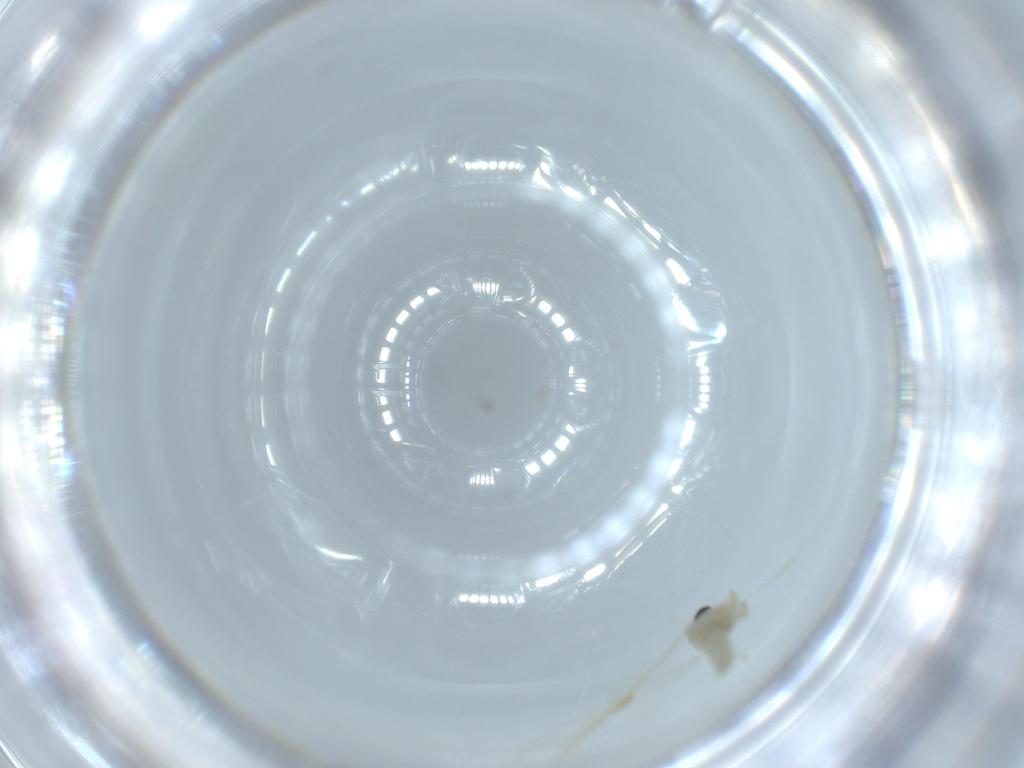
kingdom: Animalia
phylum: Arthropoda
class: Insecta
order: Diptera
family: Cecidomyiidae
